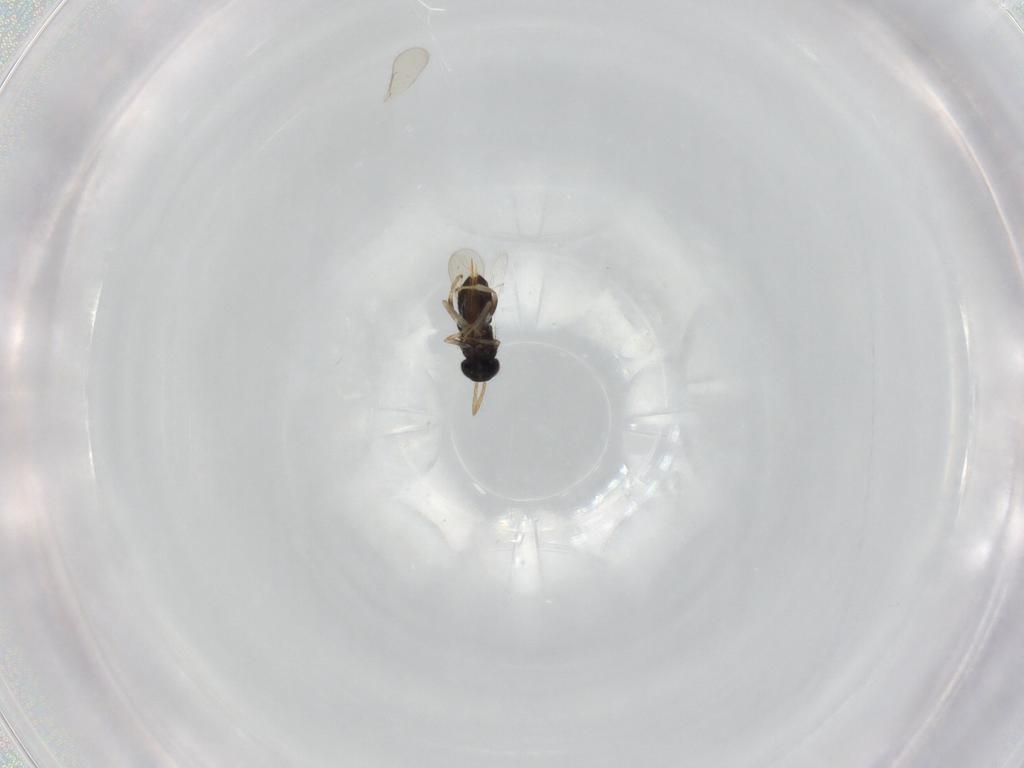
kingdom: Animalia
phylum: Arthropoda
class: Insecta
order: Hymenoptera
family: Aphelinidae
